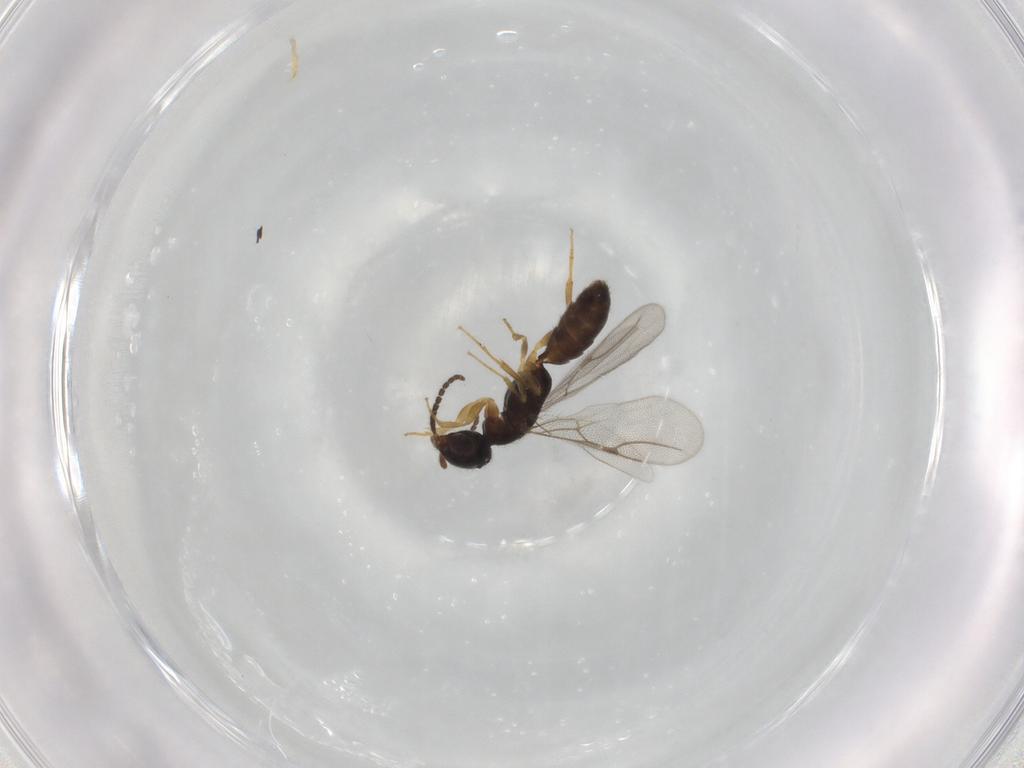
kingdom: Animalia
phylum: Arthropoda
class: Insecta
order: Hymenoptera
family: Bethylidae
